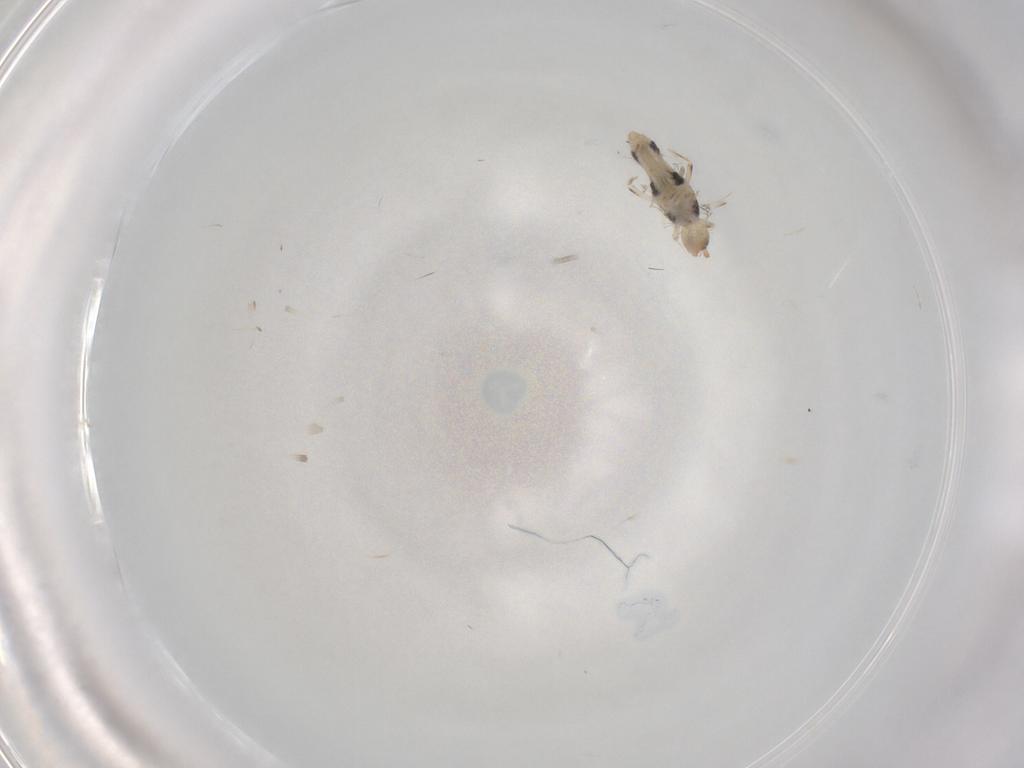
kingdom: Animalia
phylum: Arthropoda
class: Collembola
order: Entomobryomorpha
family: Entomobryidae
